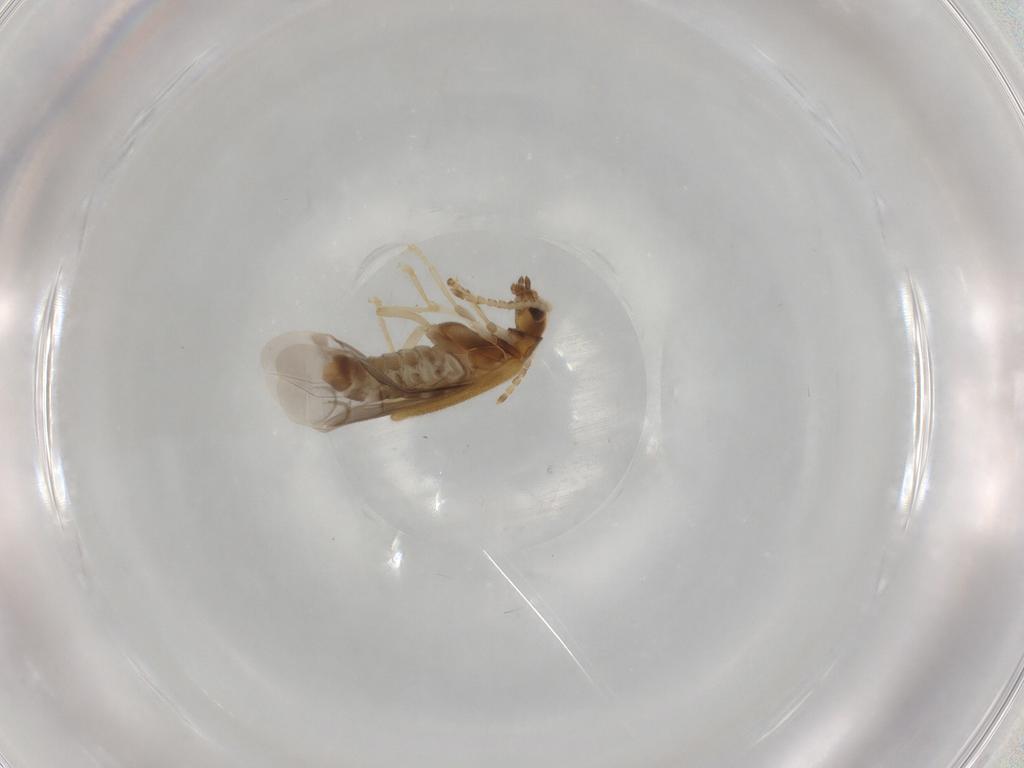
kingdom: Animalia
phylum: Arthropoda
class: Insecta
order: Coleoptera
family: Cantharidae
